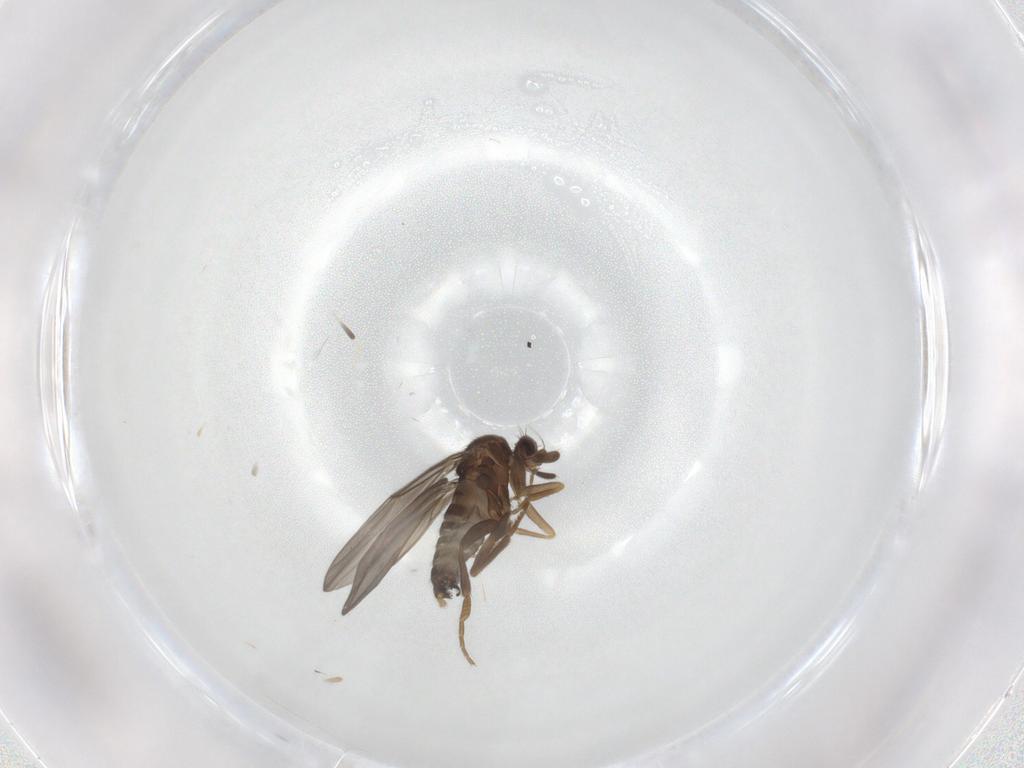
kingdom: Animalia
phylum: Arthropoda
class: Insecta
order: Diptera
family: Phoridae
